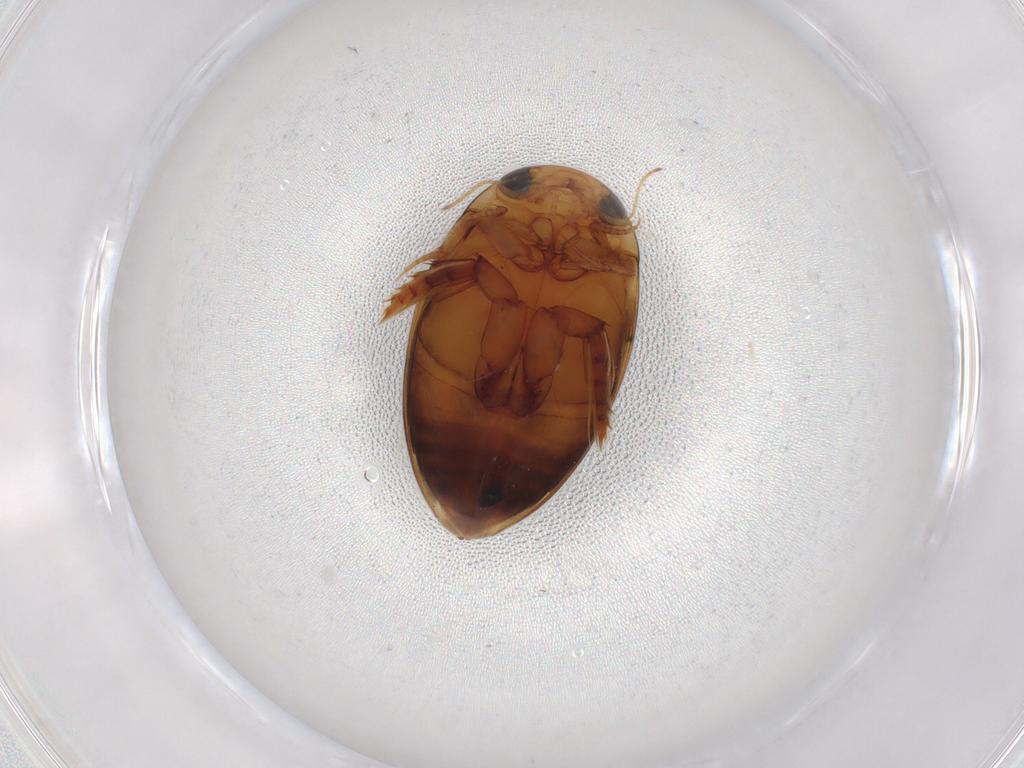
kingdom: Animalia
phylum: Arthropoda
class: Insecta
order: Coleoptera
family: Dytiscidae
